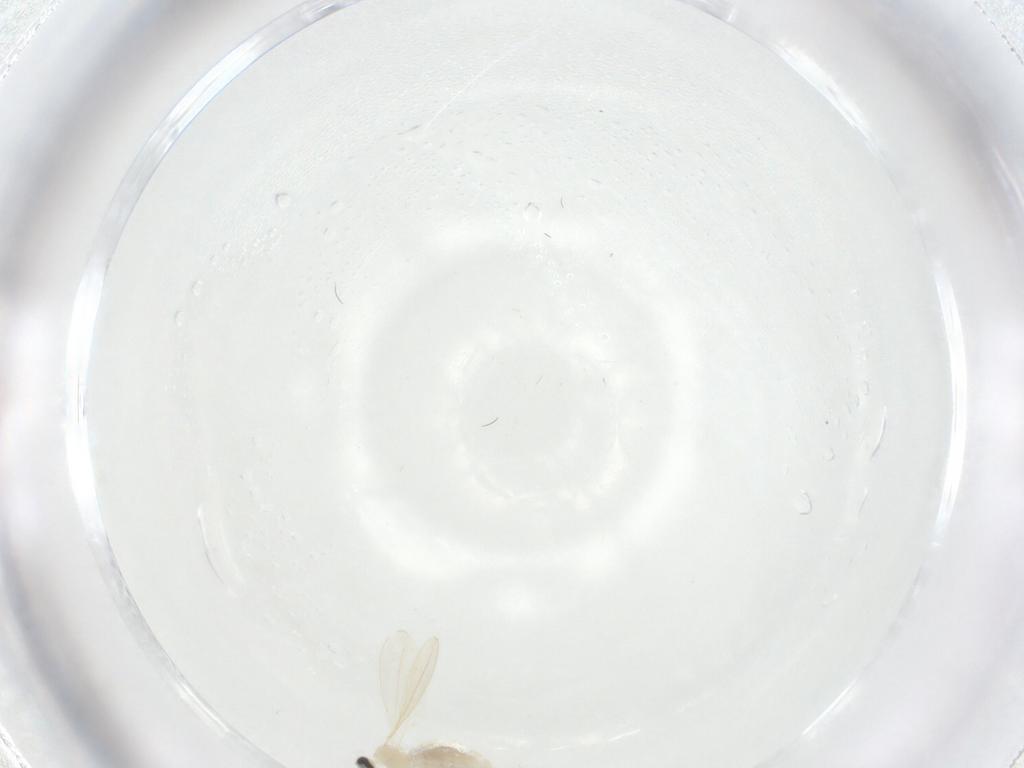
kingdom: Animalia
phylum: Arthropoda
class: Insecta
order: Diptera
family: Cecidomyiidae
